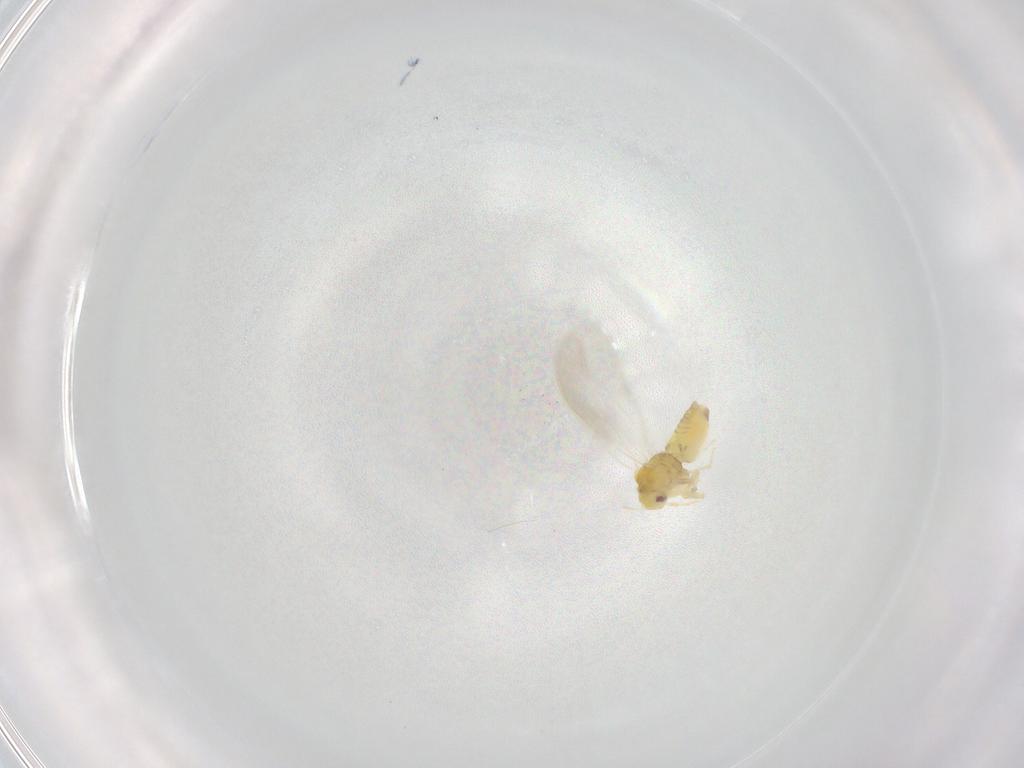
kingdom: Animalia
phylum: Arthropoda
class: Insecta
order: Hemiptera
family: Aleyrodidae
